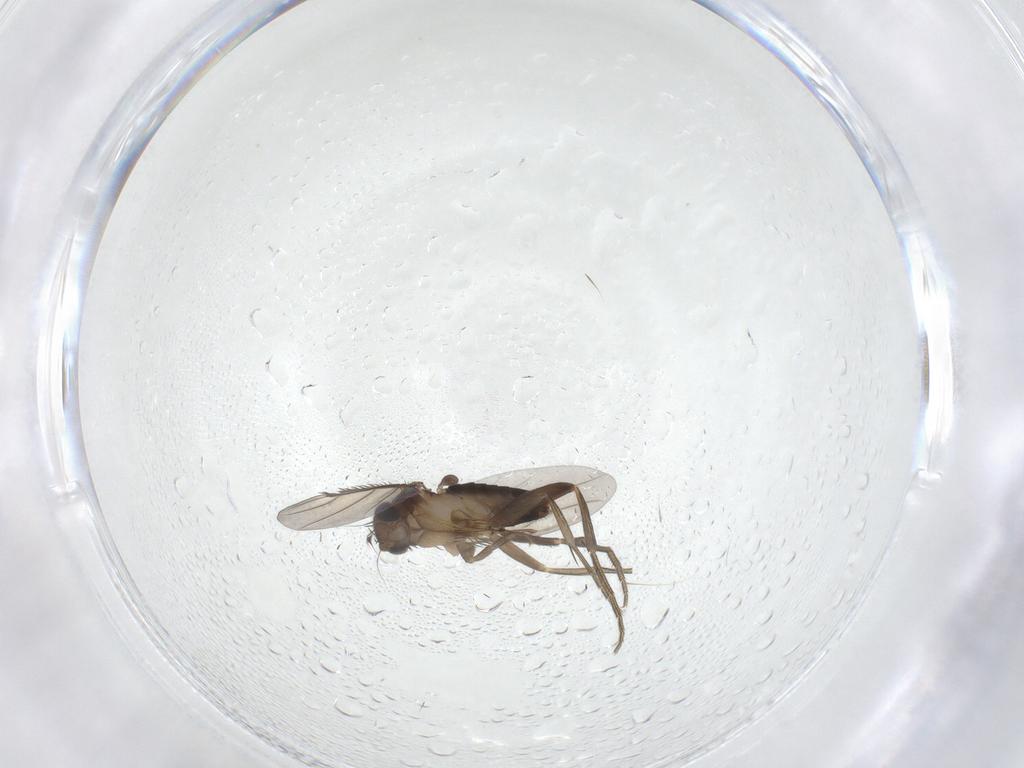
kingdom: Animalia
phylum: Arthropoda
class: Insecta
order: Diptera
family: Phoridae
